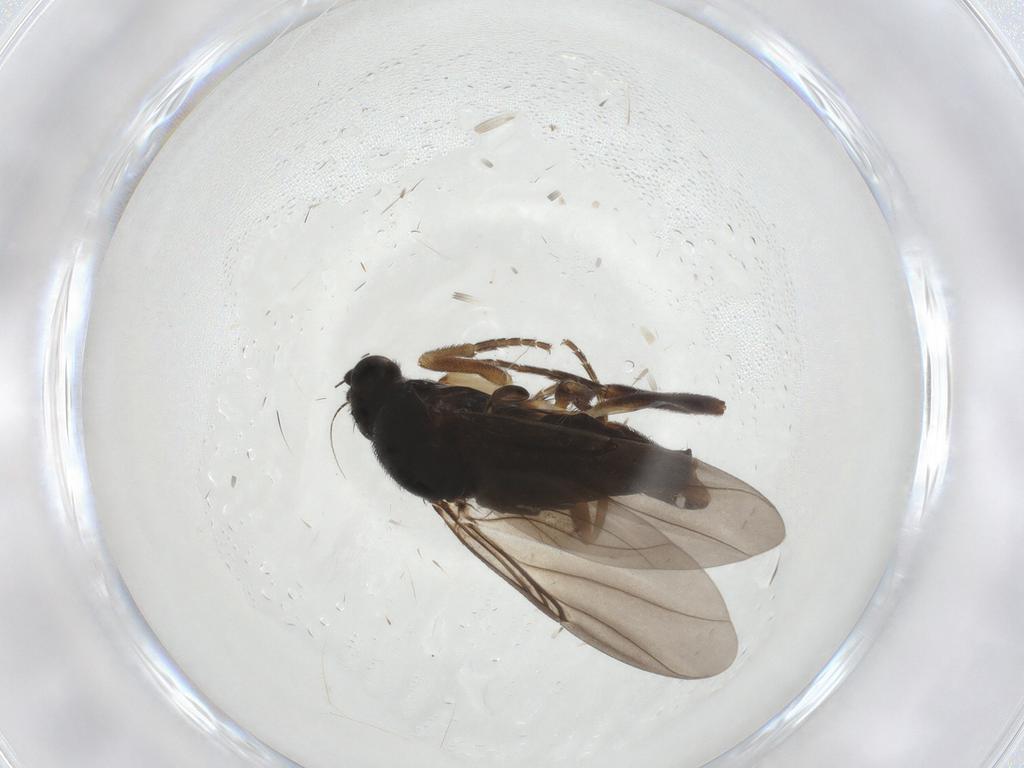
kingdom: Animalia
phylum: Arthropoda
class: Insecta
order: Diptera
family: Phoridae
